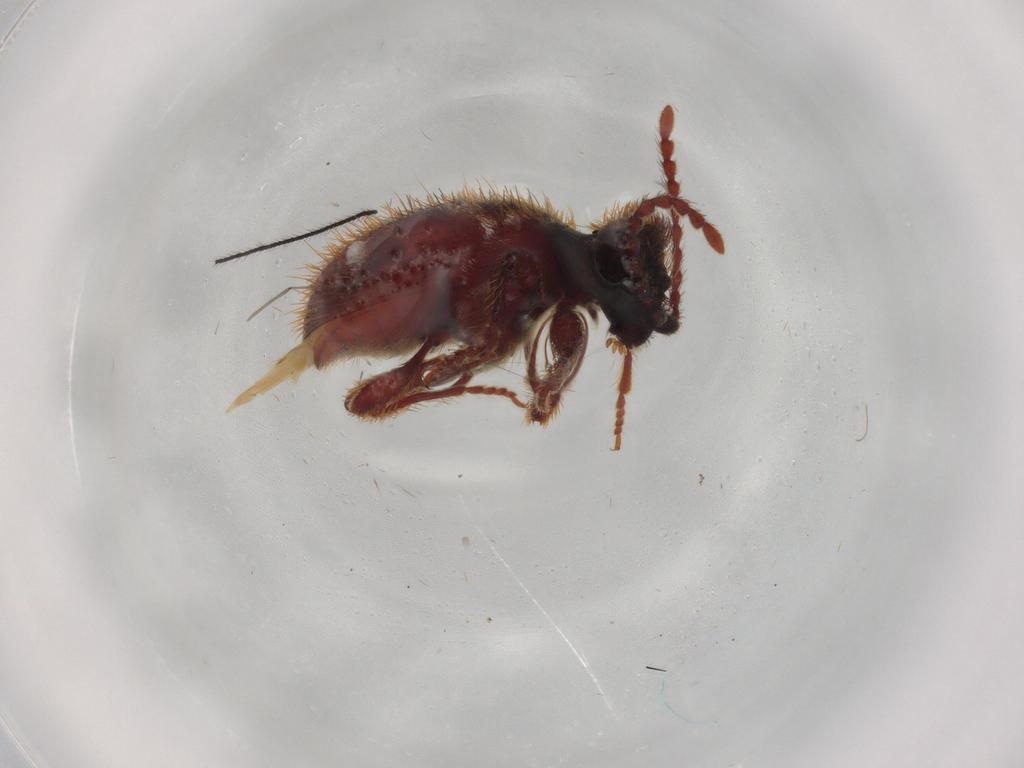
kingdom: Animalia
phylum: Arthropoda
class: Insecta
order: Coleoptera
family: Ptinidae
